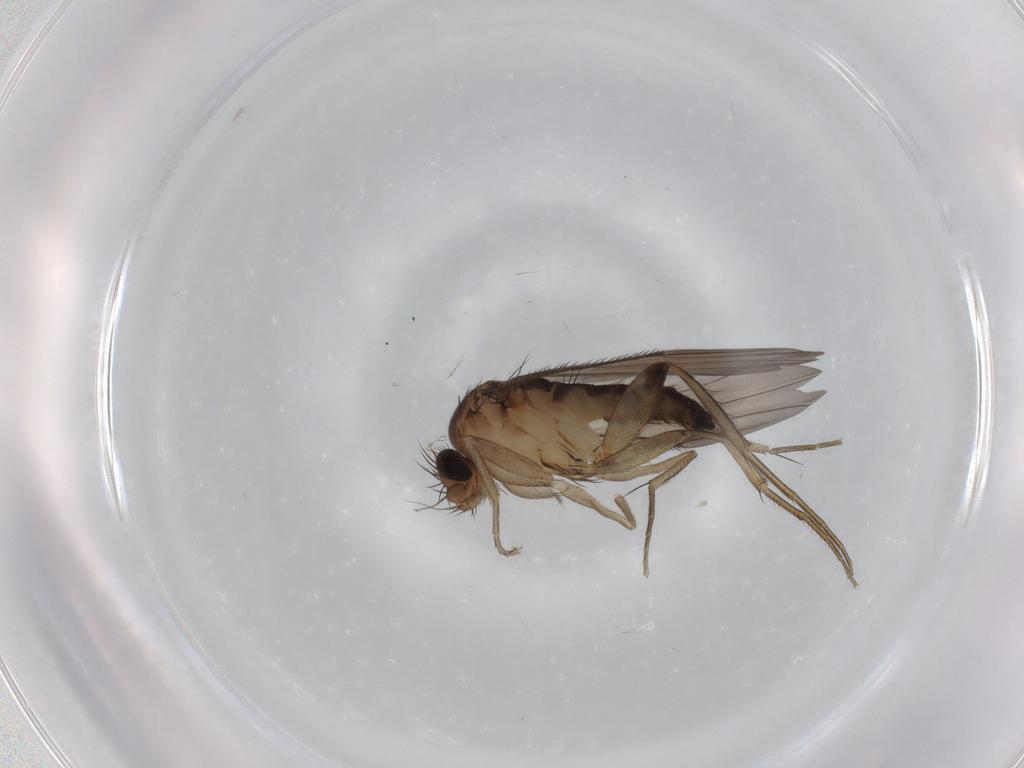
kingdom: Animalia
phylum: Arthropoda
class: Insecta
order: Diptera
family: Phoridae
